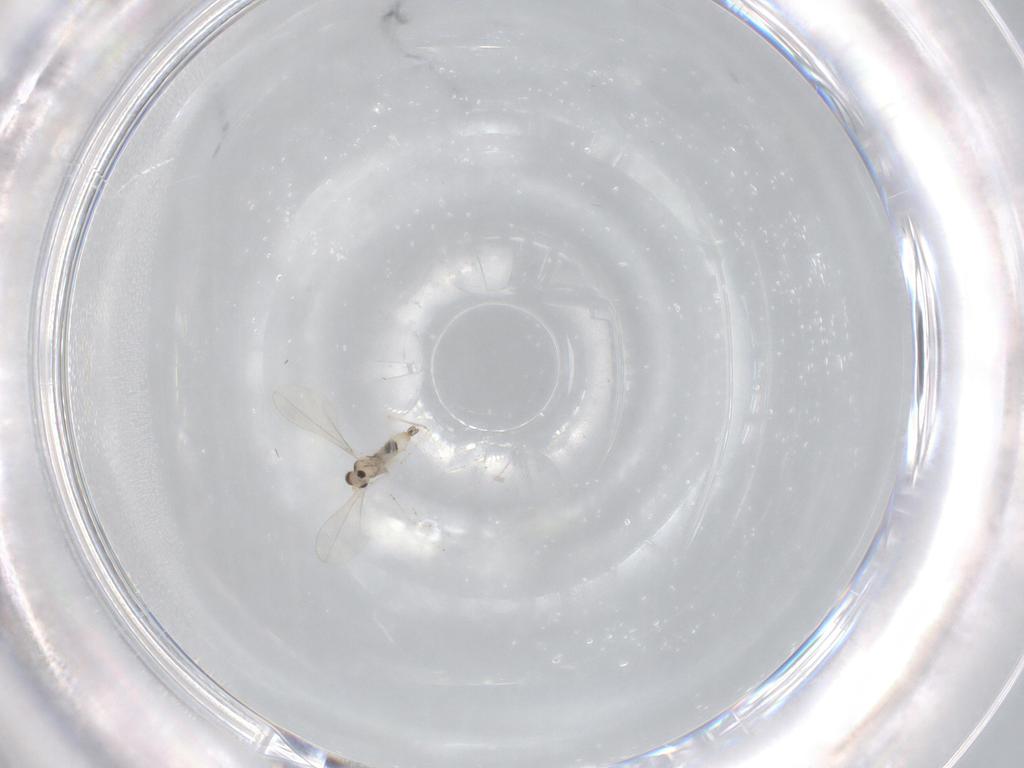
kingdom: Animalia
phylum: Arthropoda
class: Insecta
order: Diptera
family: Cecidomyiidae
